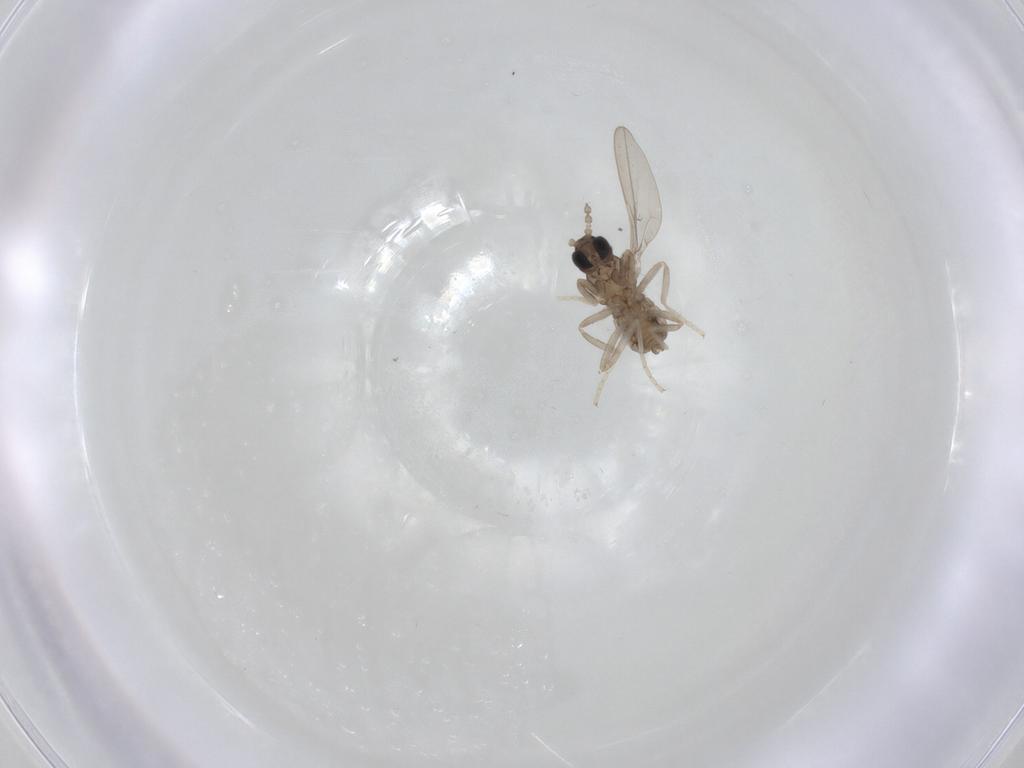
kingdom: Animalia
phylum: Arthropoda
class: Insecta
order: Diptera
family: Cecidomyiidae
